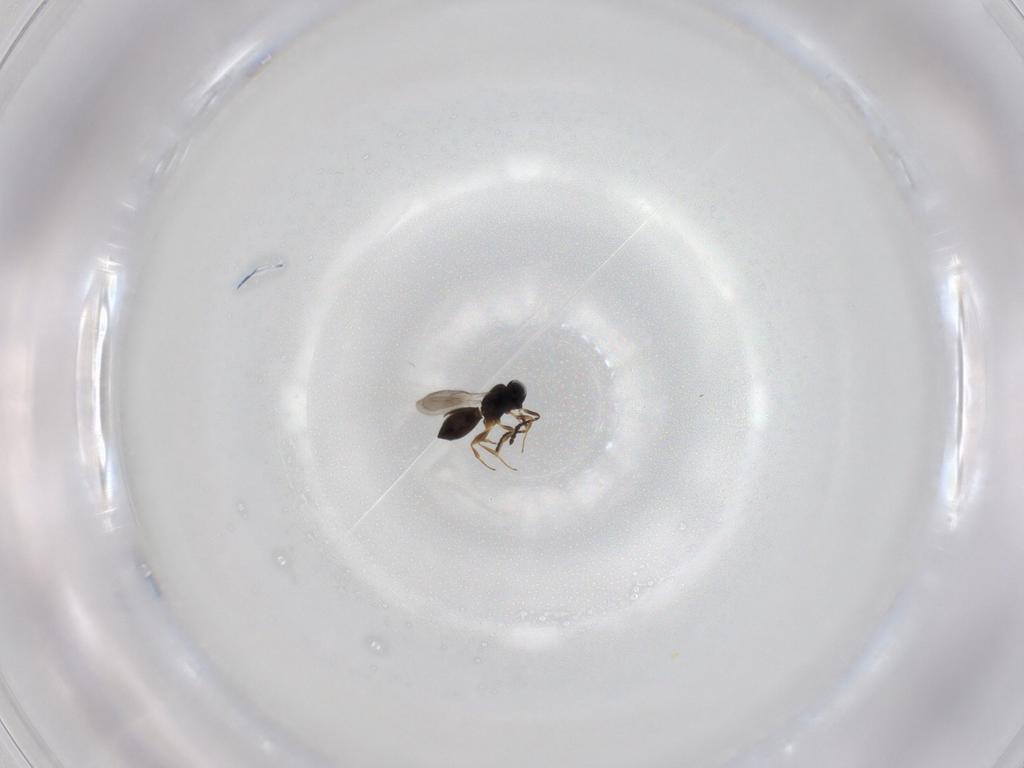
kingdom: Animalia
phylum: Arthropoda
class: Insecta
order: Hymenoptera
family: Scelionidae
